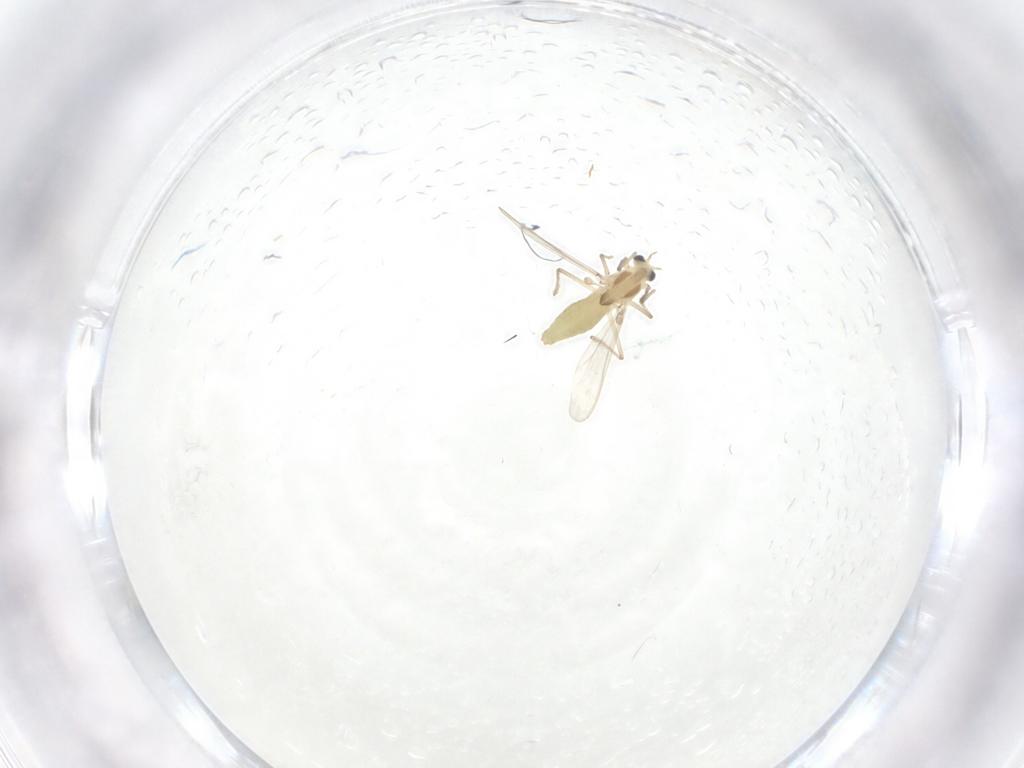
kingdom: Animalia
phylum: Arthropoda
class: Insecta
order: Diptera
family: Chironomidae
